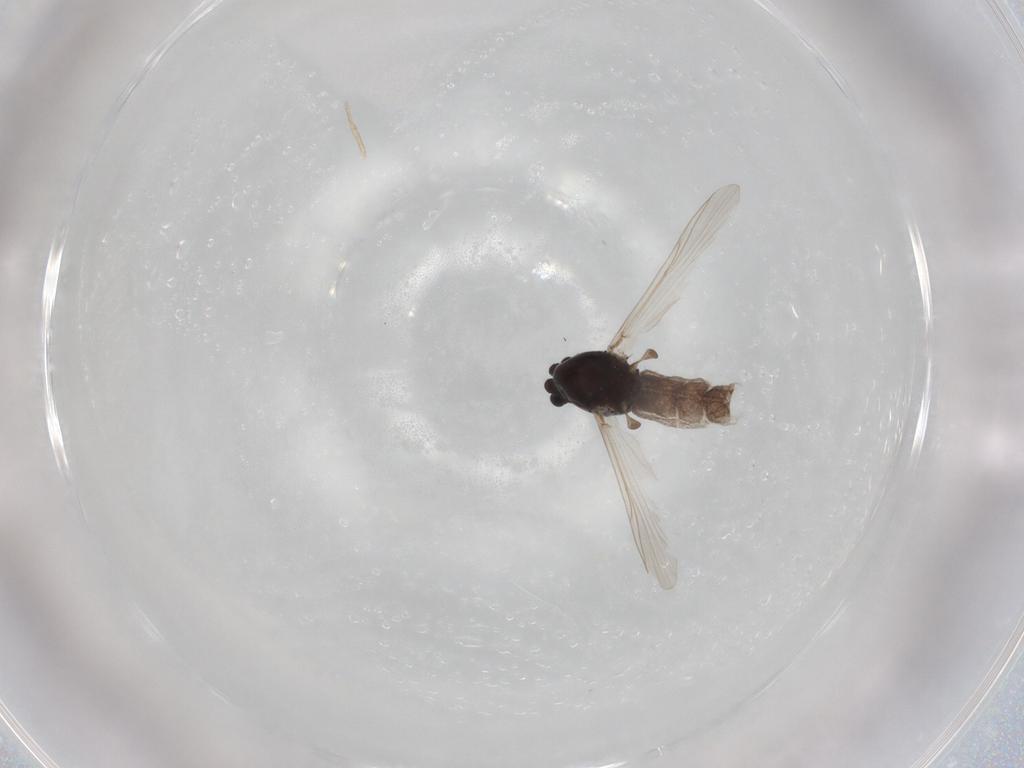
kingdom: Animalia
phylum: Arthropoda
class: Insecta
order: Diptera
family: Chironomidae
